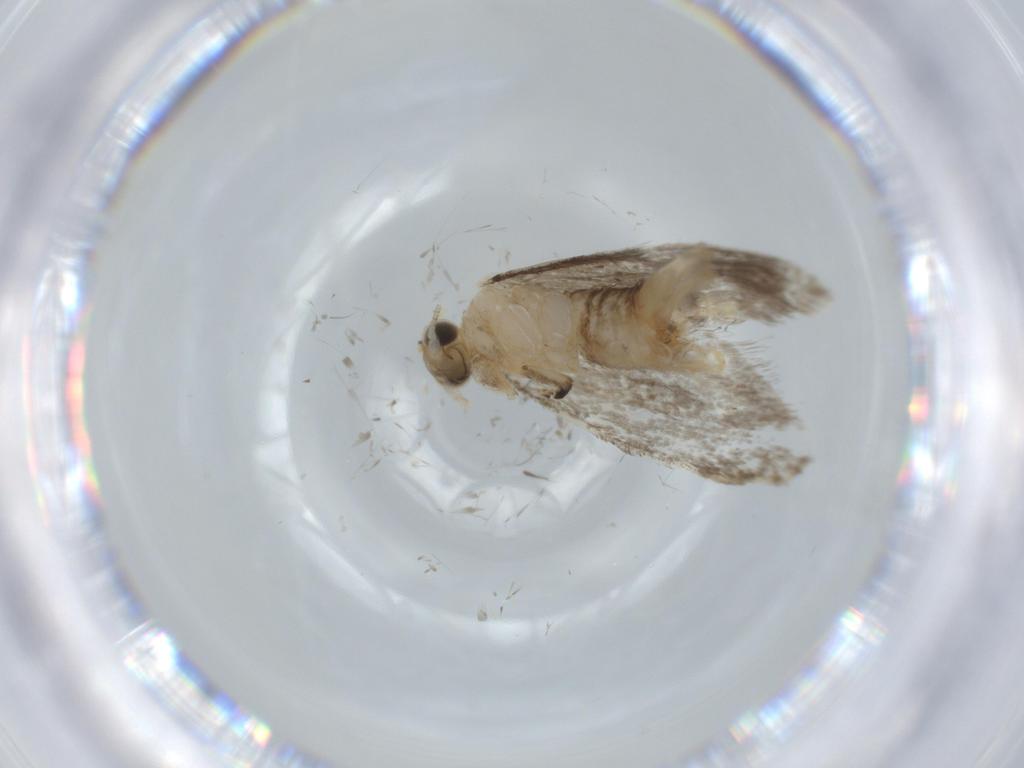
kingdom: Animalia
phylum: Arthropoda
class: Insecta
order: Lepidoptera
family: Tineidae
